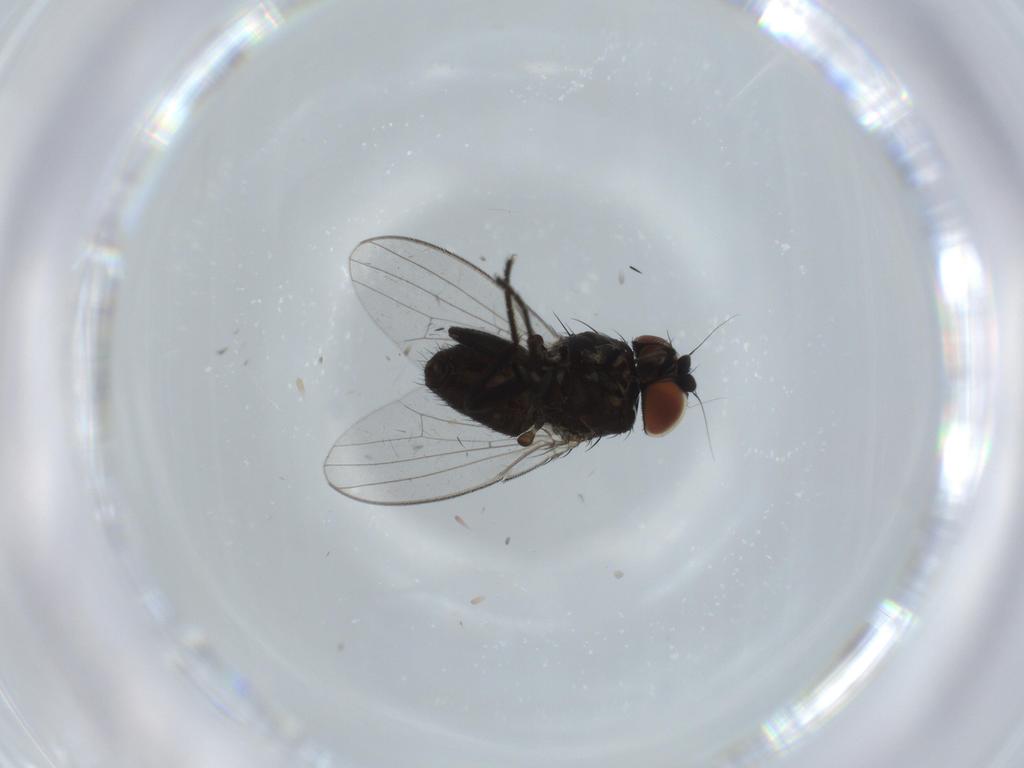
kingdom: Animalia
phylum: Arthropoda
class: Insecta
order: Diptera
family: Milichiidae
